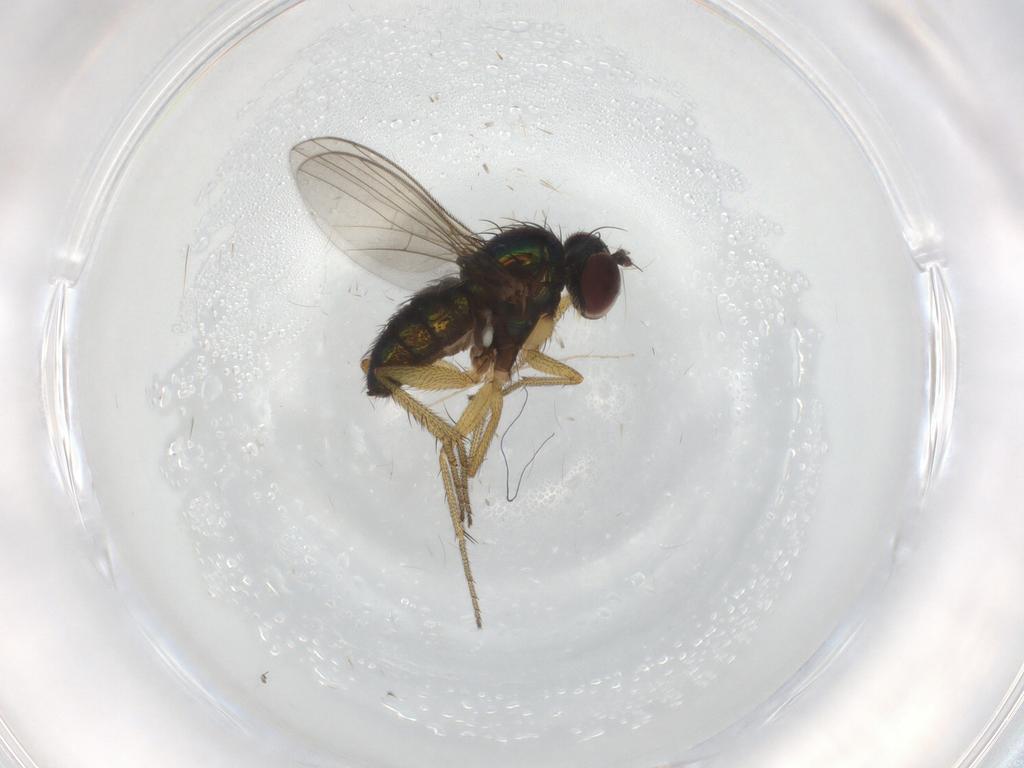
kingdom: Animalia
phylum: Arthropoda
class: Insecta
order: Diptera
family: Chironomidae
